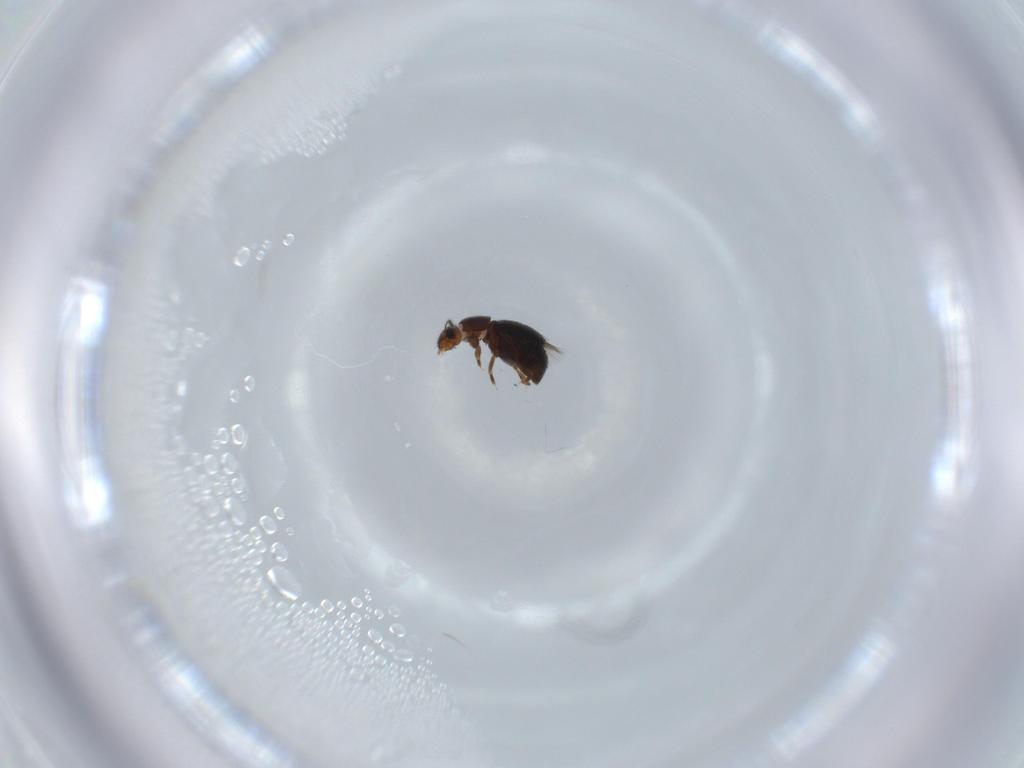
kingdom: Animalia
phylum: Arthropoda
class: Insecta
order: Coleoptera
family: Ptiliidae
